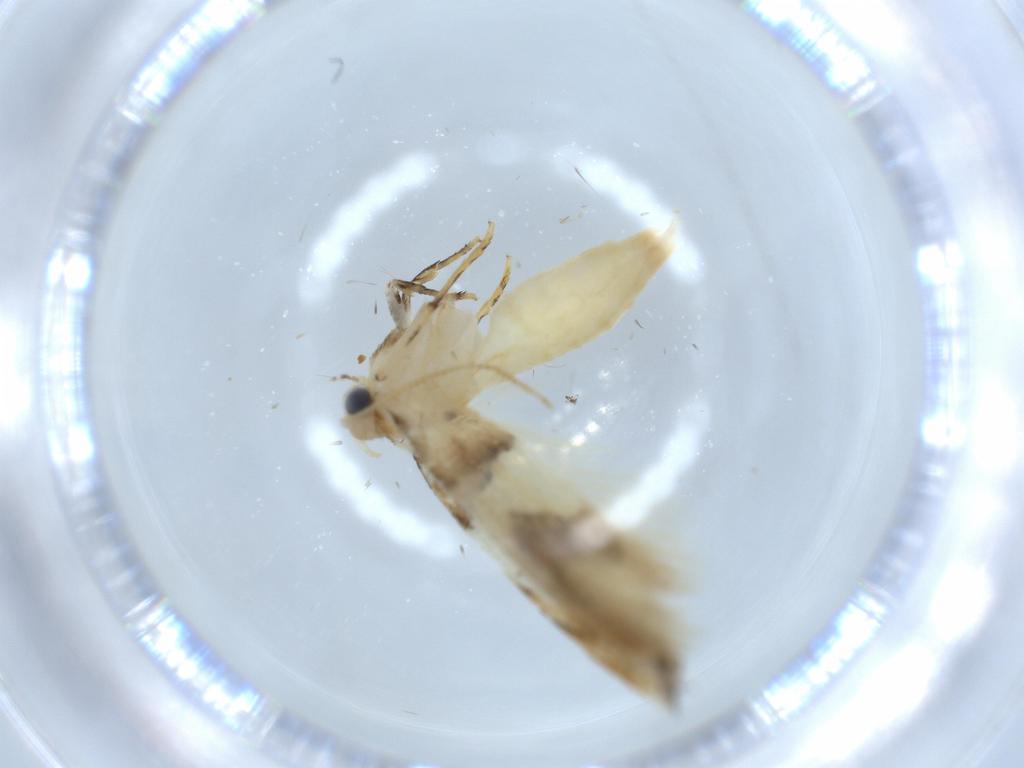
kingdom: Animalia
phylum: Arthropoda
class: Insecta
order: Lepidoptera
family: Tineidae
